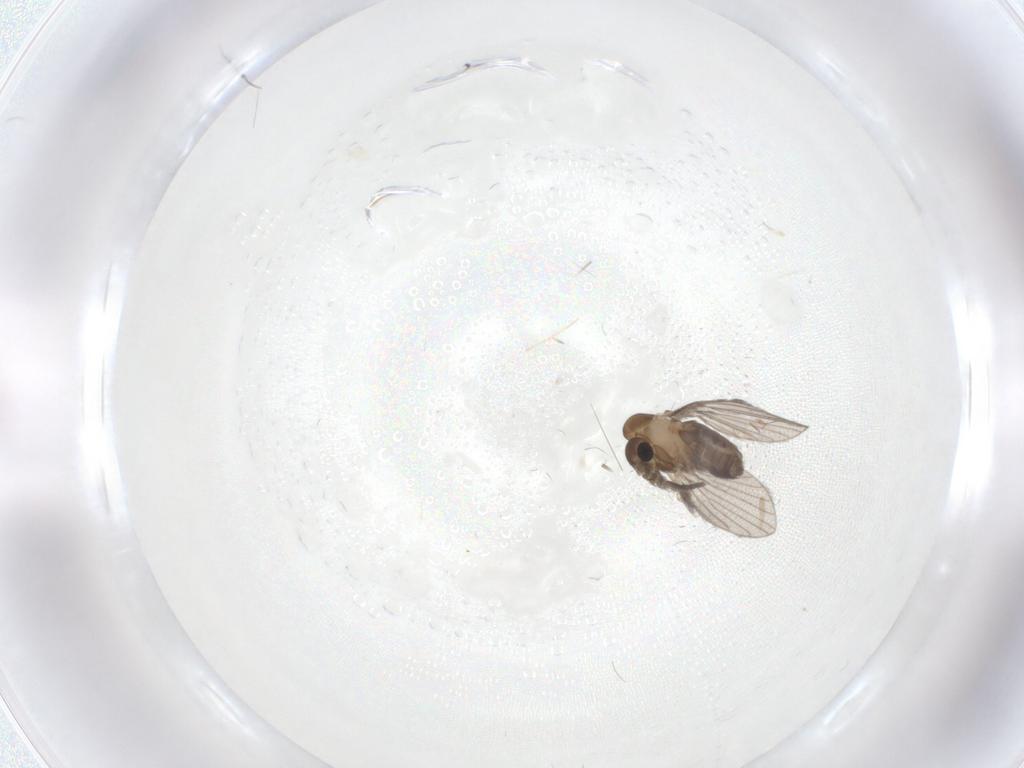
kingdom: Animalia
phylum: Arthropoda
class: Insecta
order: Diptera
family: Psychodidae
